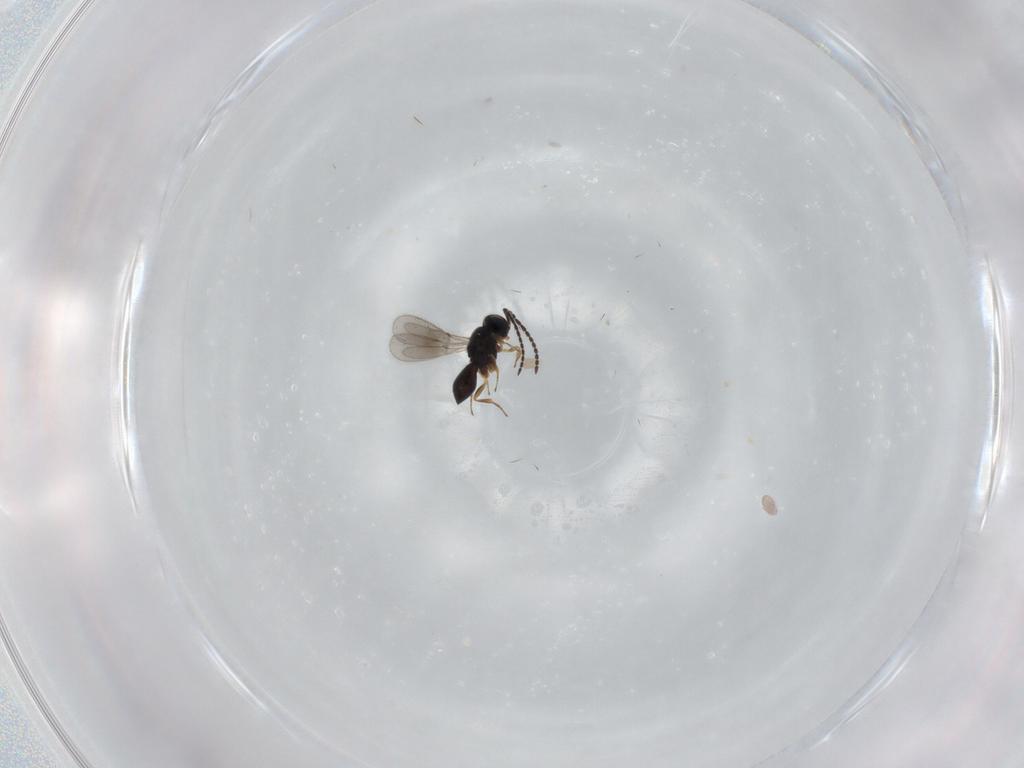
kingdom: Animalia
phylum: Arthropoda
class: Insecta
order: Hymenoptera
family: Scelionidae
